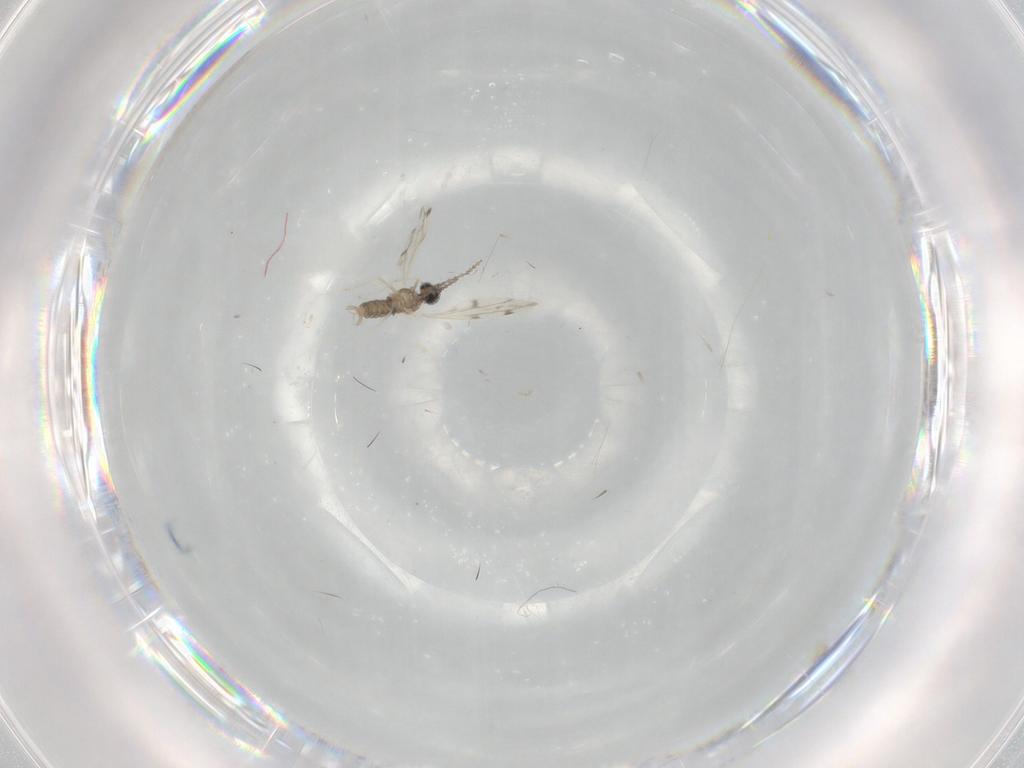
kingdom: Animalia
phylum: Arthropoda
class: Insecta
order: Diptera
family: Cecidomyiidae
